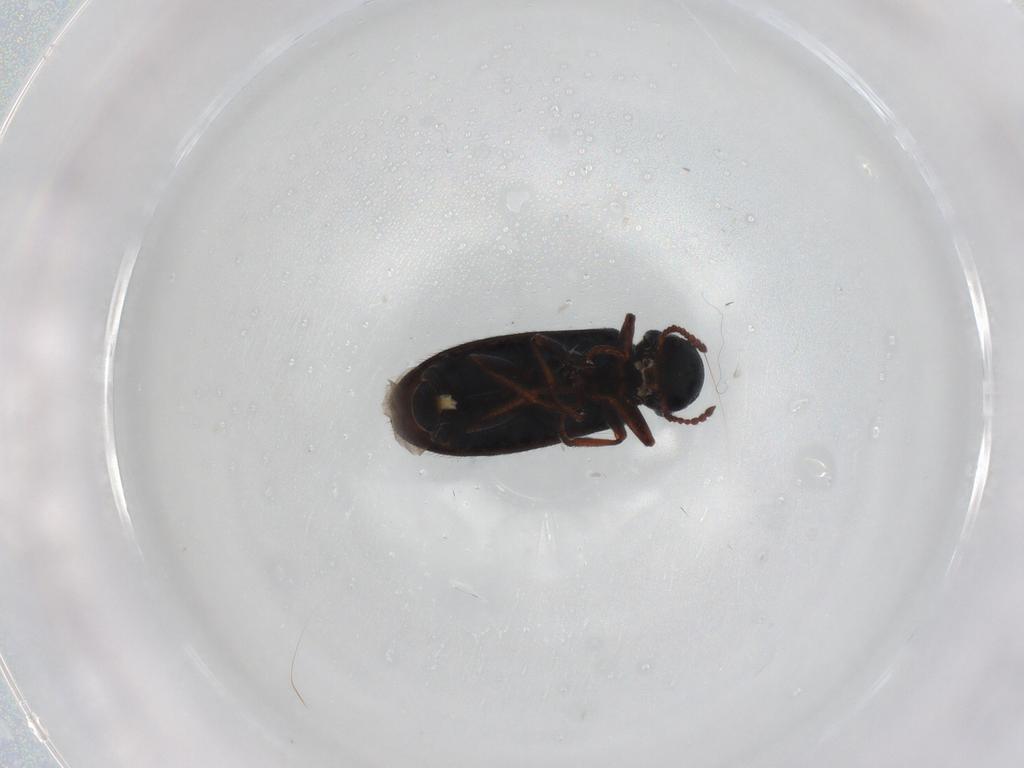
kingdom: Animalia
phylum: Arthropoda
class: Insecta
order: Coleoptera
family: Melyridae
